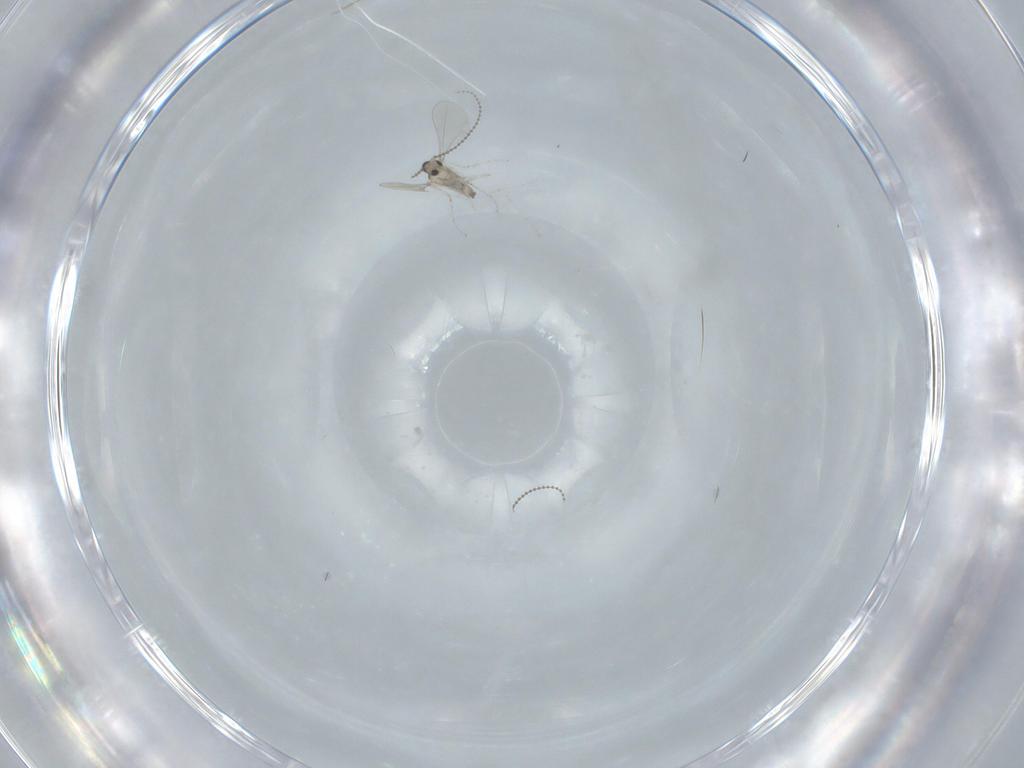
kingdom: Animalia
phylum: Arthropoda
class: Insecta
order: Diptera
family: Cecidomyiidae
